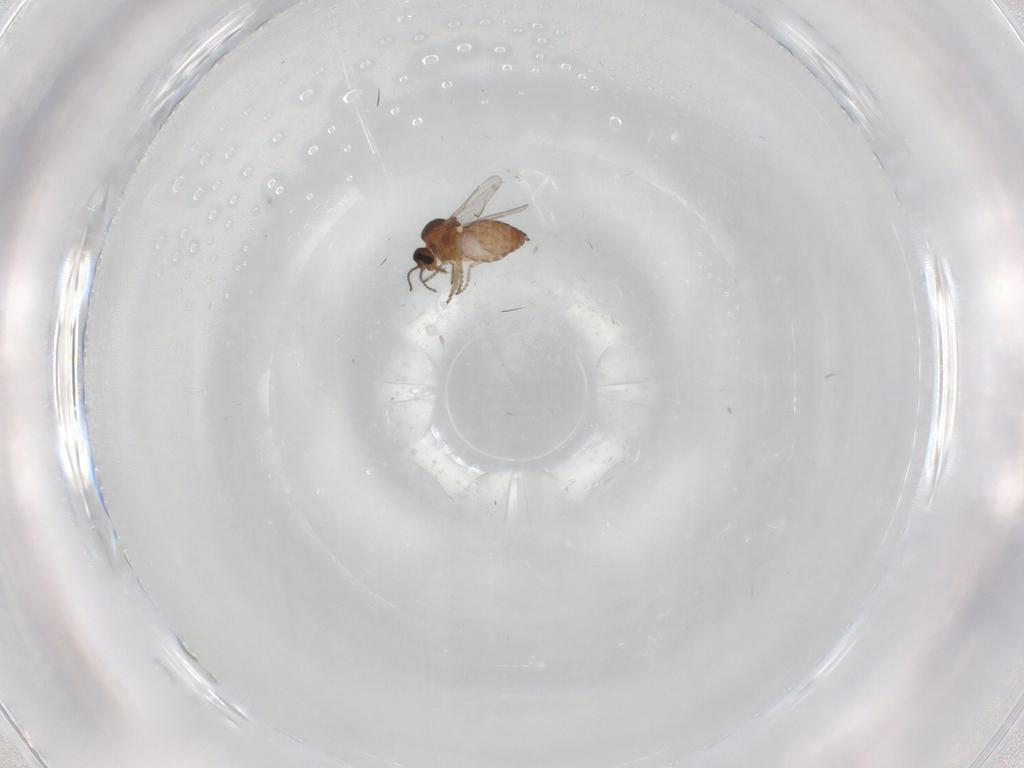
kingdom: Animalia
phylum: Arthropoda
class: Insecta
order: Diptera
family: Ceratopogonidae
